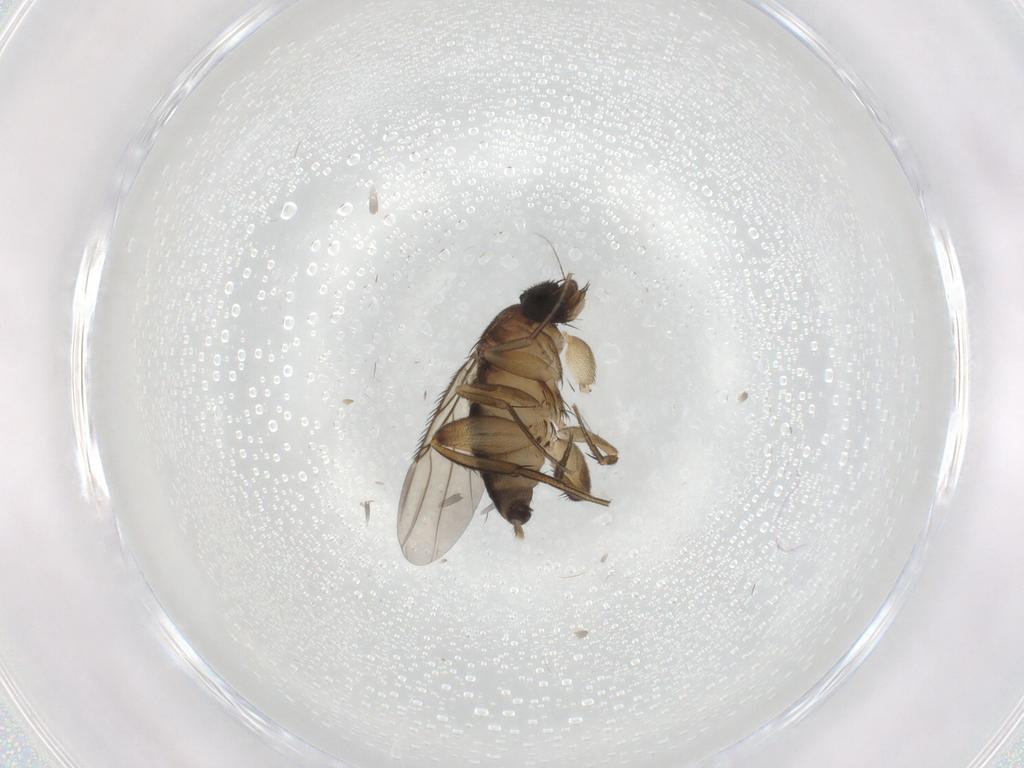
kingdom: Animalia
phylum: Arthropoda
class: Insecta
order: Diptera
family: Phoridae
